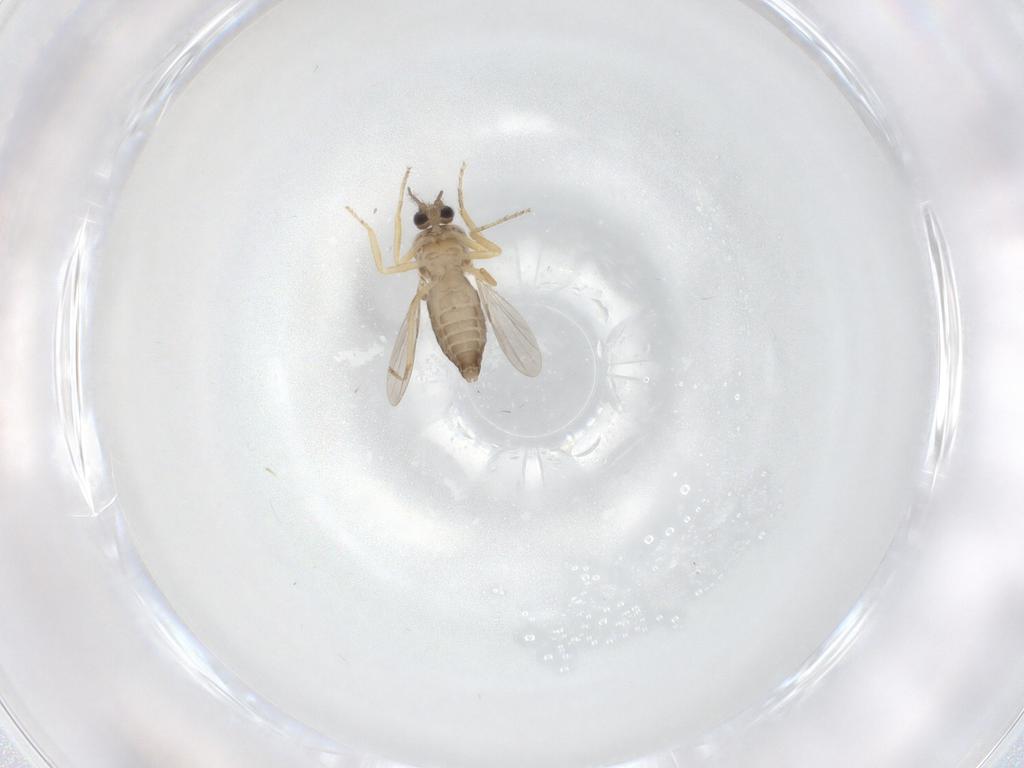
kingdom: Animalia
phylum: Arthropoda
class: Insecta
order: Diptera
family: Ceratopogonidae
